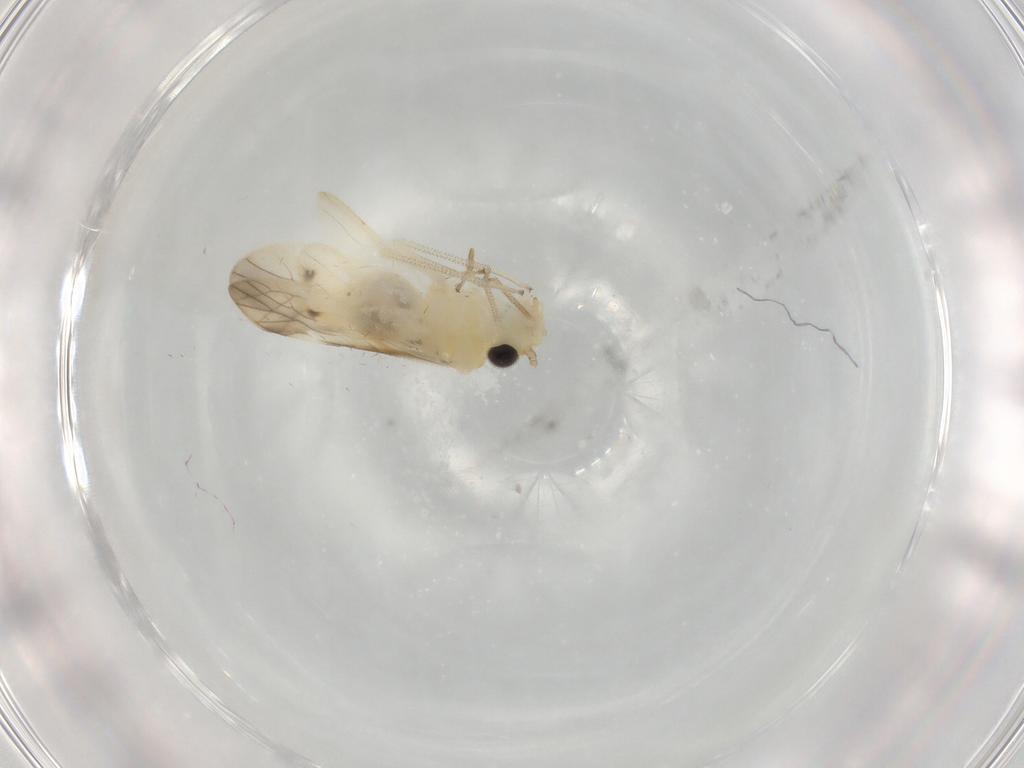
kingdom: Animalia
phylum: Arthropoda
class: Insecta
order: Psocodea
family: Caeciliusidae
